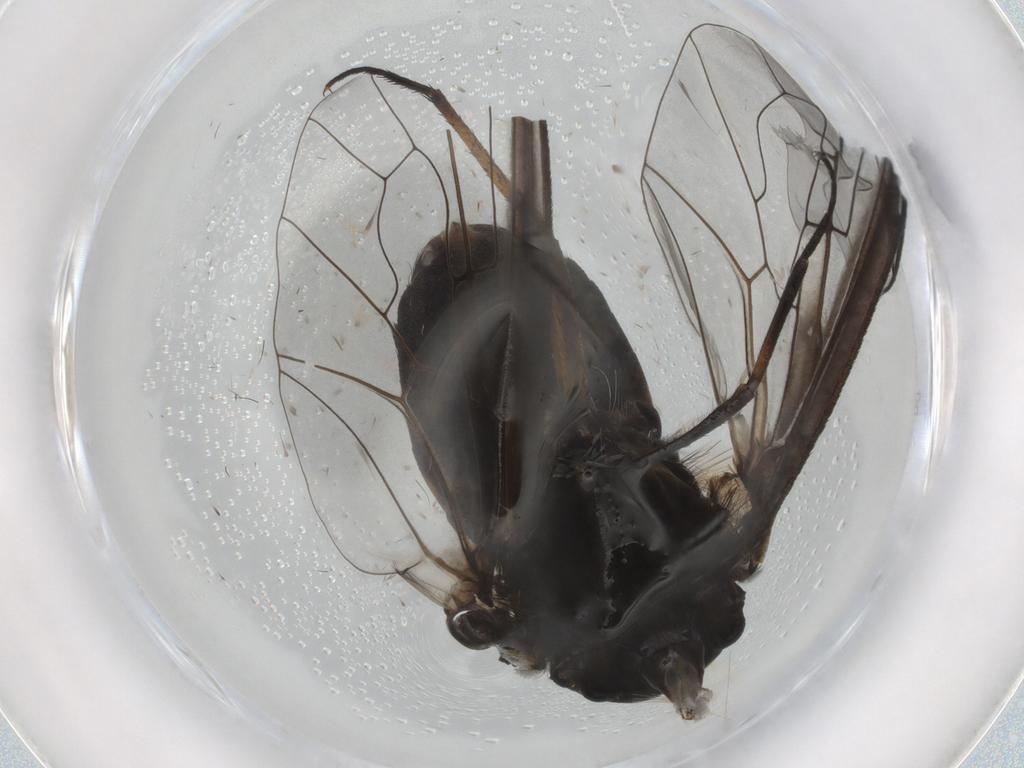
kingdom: Animalia
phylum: Arthropoda
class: Insecta
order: Diptera
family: Bombyliidae
